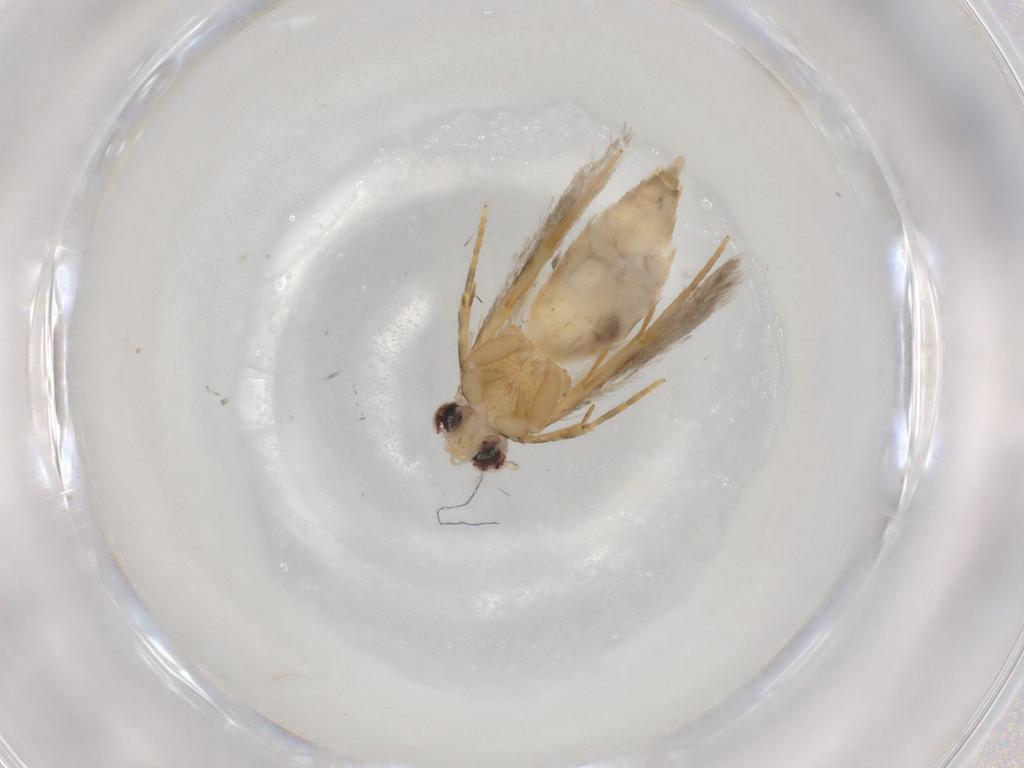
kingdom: Animalia
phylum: Arthropoda
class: Insecta
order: Lepidoptera
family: Autostichidae
